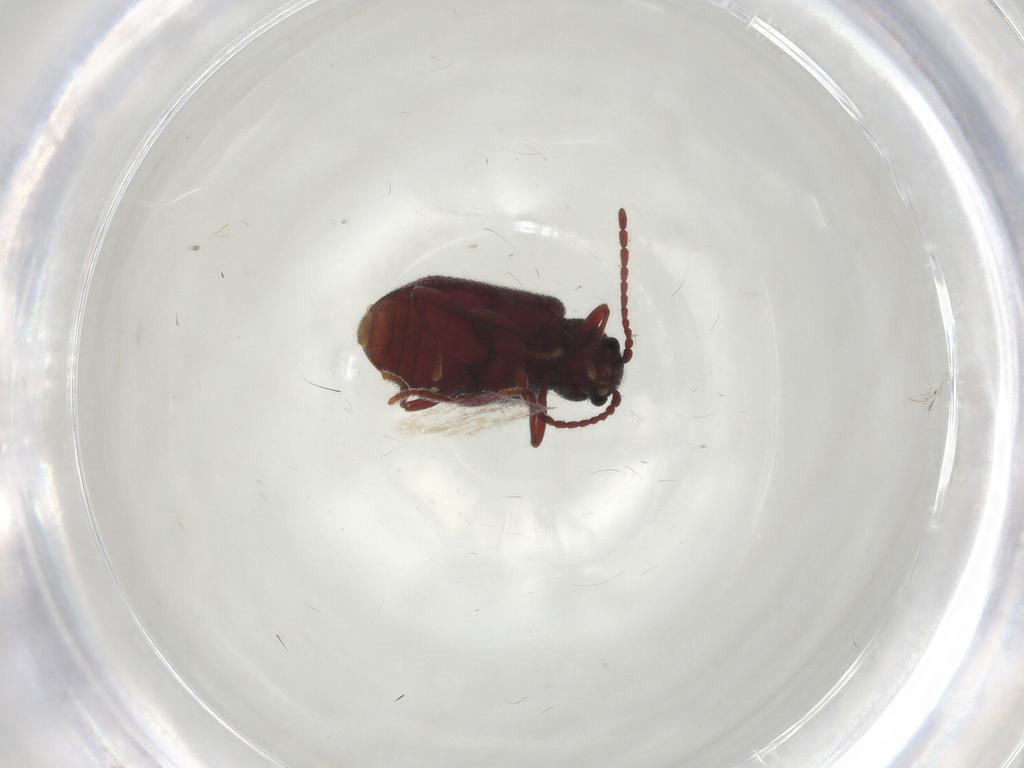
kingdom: Animalia
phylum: Arthropoda
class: Insecta
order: Coleoptera
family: Ptinidae
